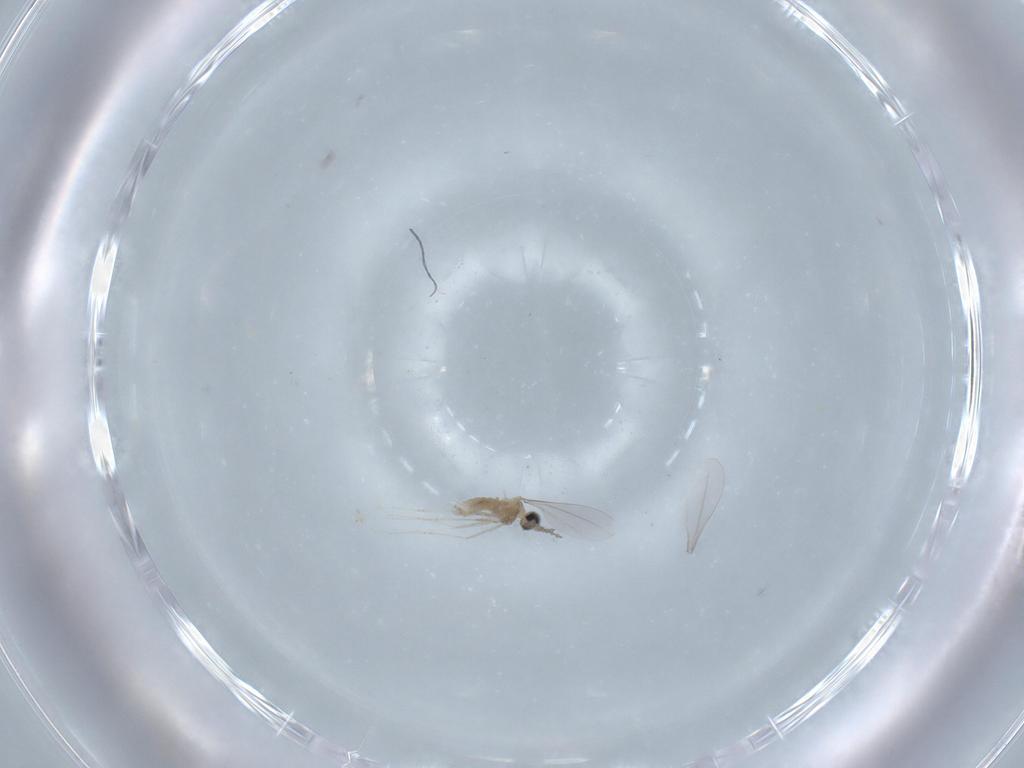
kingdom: Animalia
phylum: Arthropoda
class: Insecta
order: Diptera
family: Cecidomyiidae
